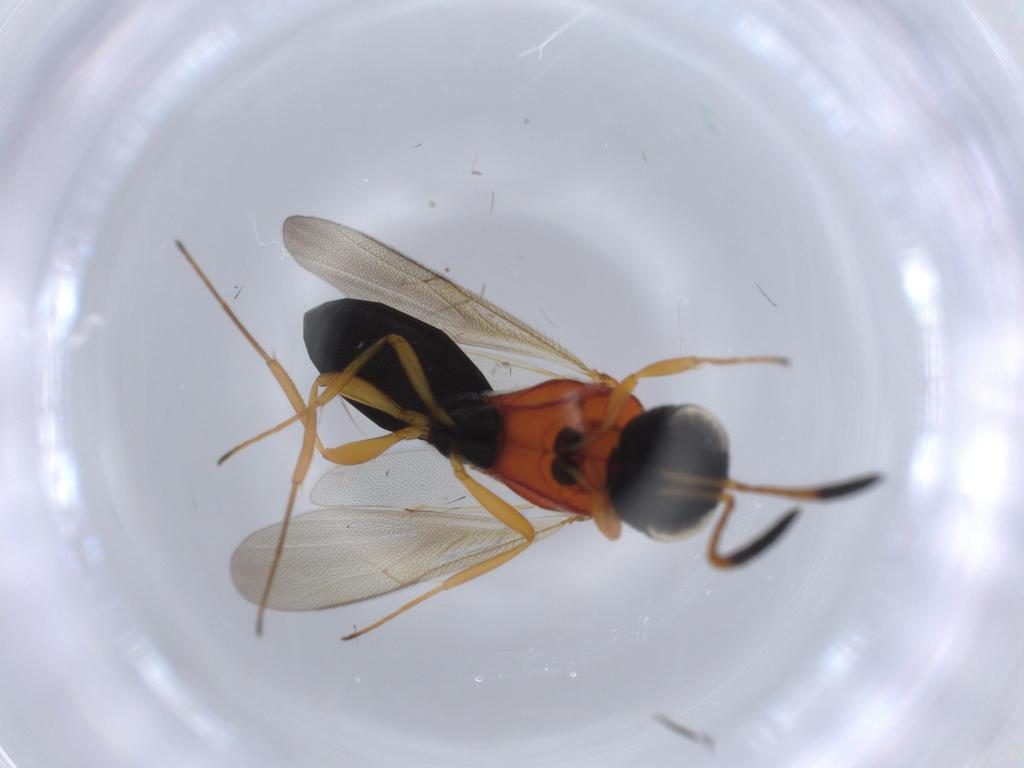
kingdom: Animalia
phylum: Arthropoda
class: Insecta
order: Hymenoptera
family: Scelionidae
